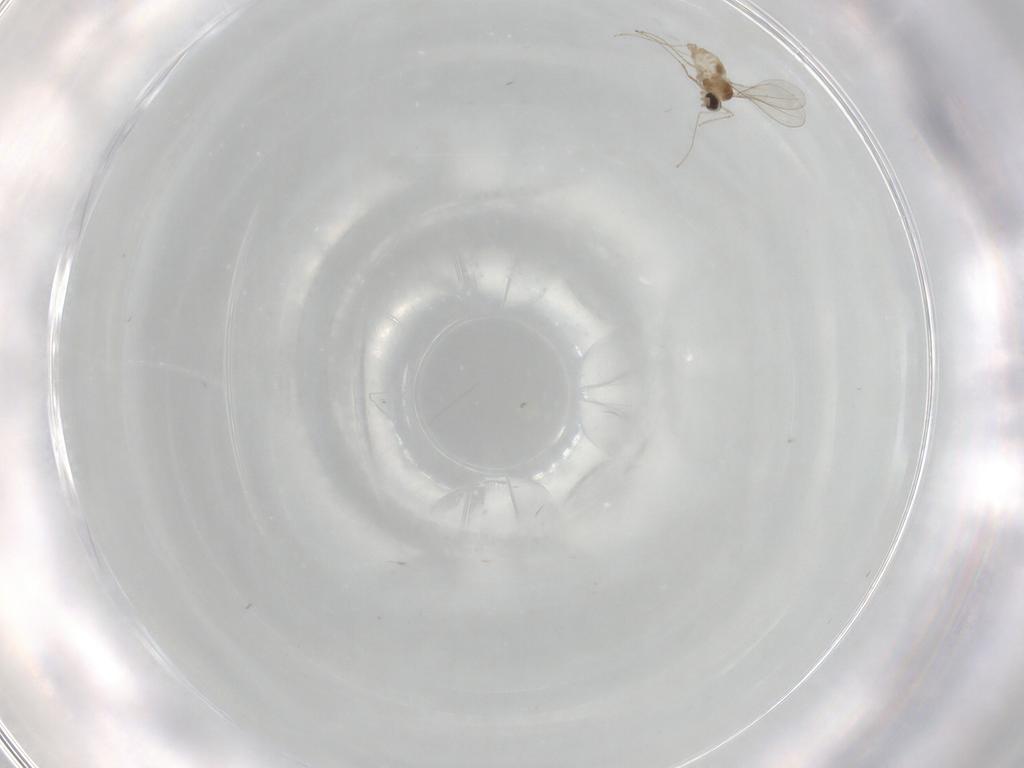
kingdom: Animalia
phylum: Arthropoda
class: Insecta
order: Diptera
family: Cecidomyiidae
